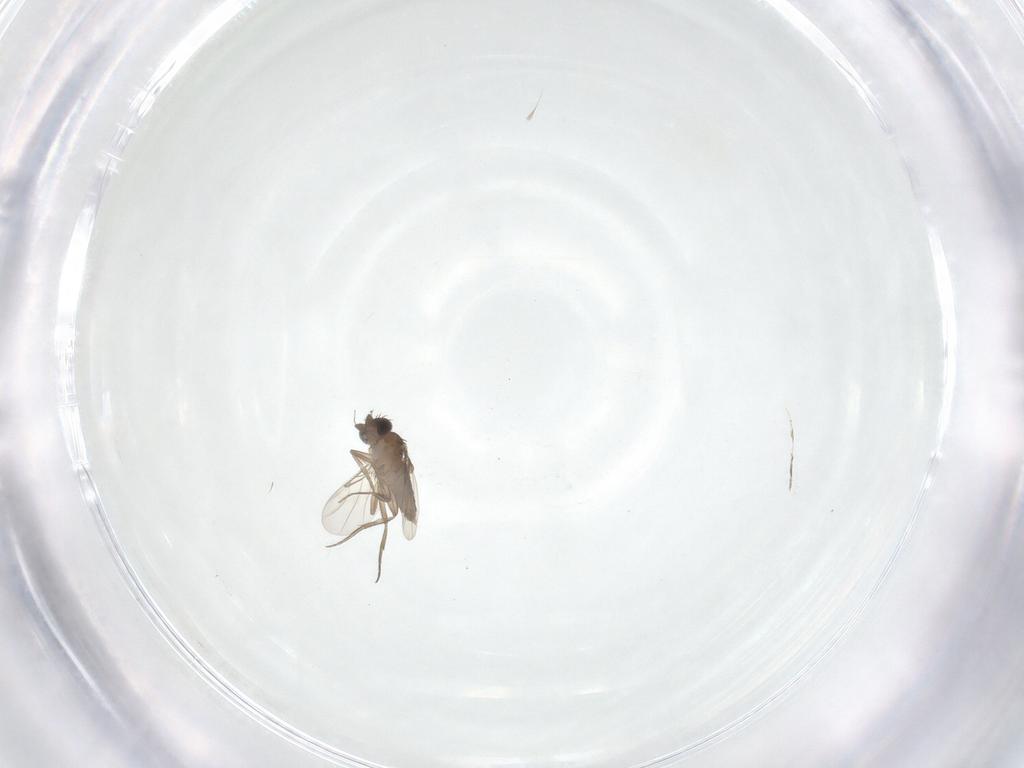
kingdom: Animalia
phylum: Arthropoda
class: Insecta
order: Diptera
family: Phoridae
